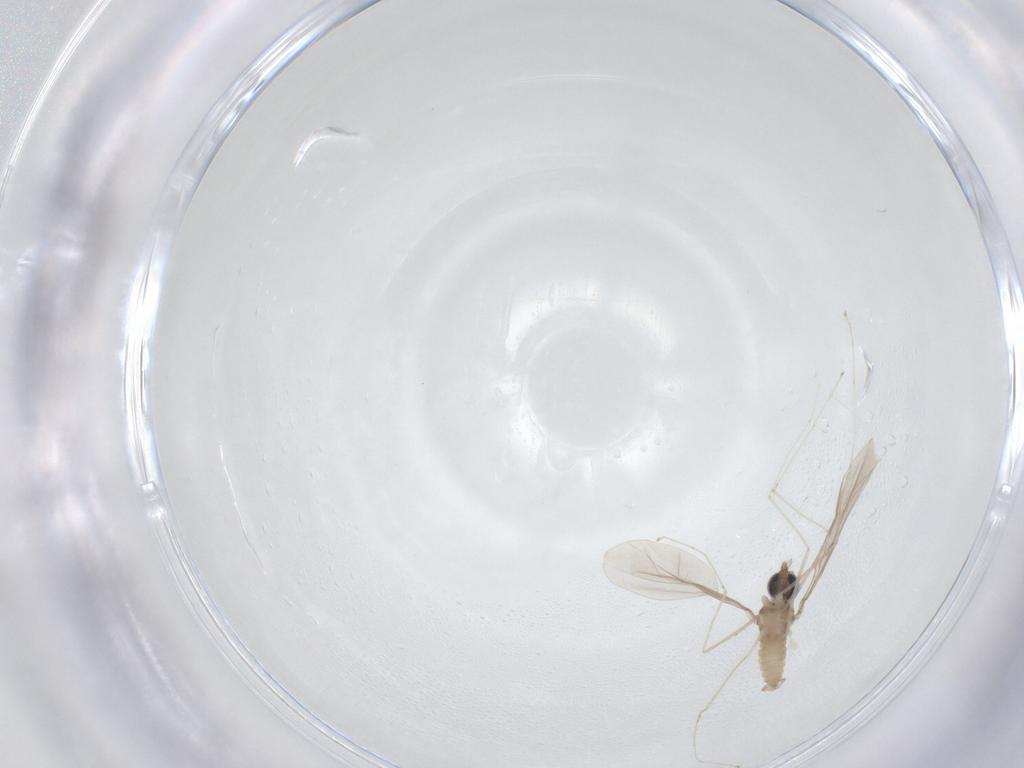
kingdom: Animalia
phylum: Arthropoda
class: Insecta
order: Diptera
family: Cecidomyiidae
